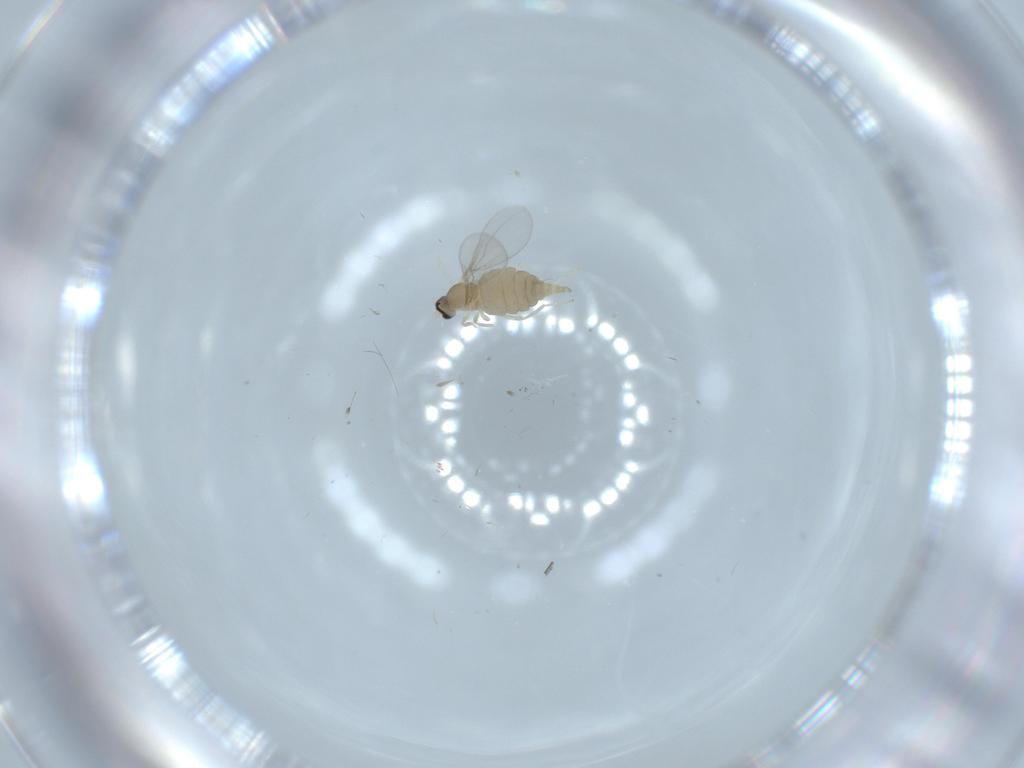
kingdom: Animalia
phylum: Arthropoda
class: Insecta
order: Diptera
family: Cecidomyiidae
